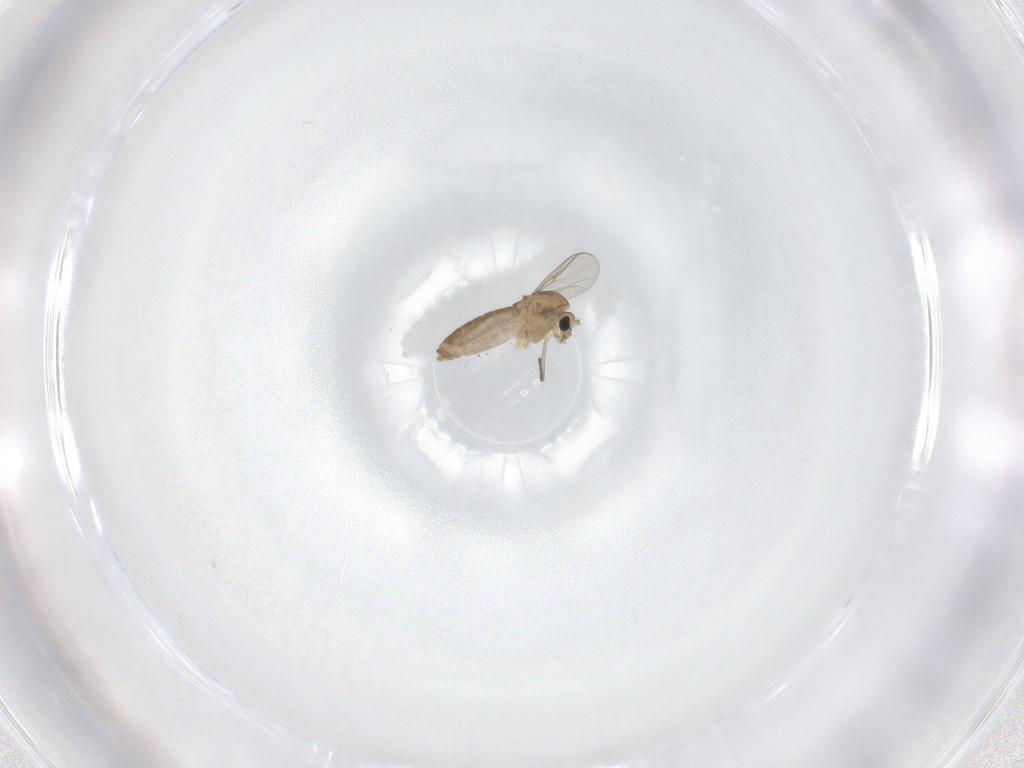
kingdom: Animalia
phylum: Arthropoda
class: Insecta
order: Diptera
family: Chironomidae
